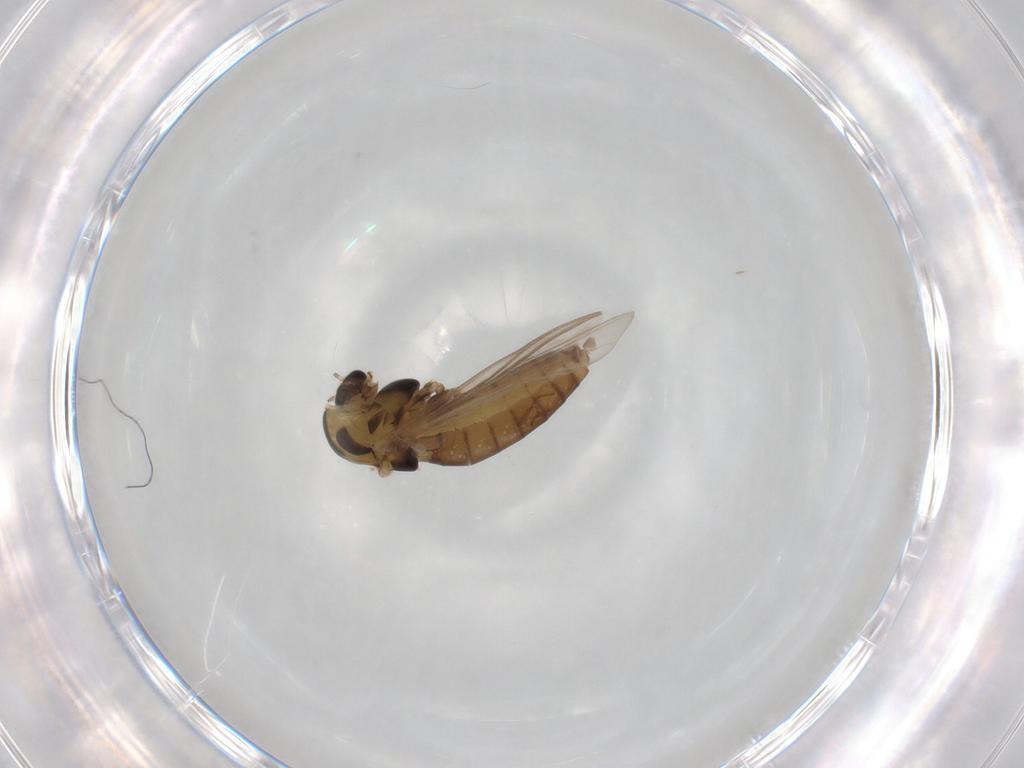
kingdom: Animalia
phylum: Arthropoda
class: Insecta
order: Diptera
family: Chironomidae
